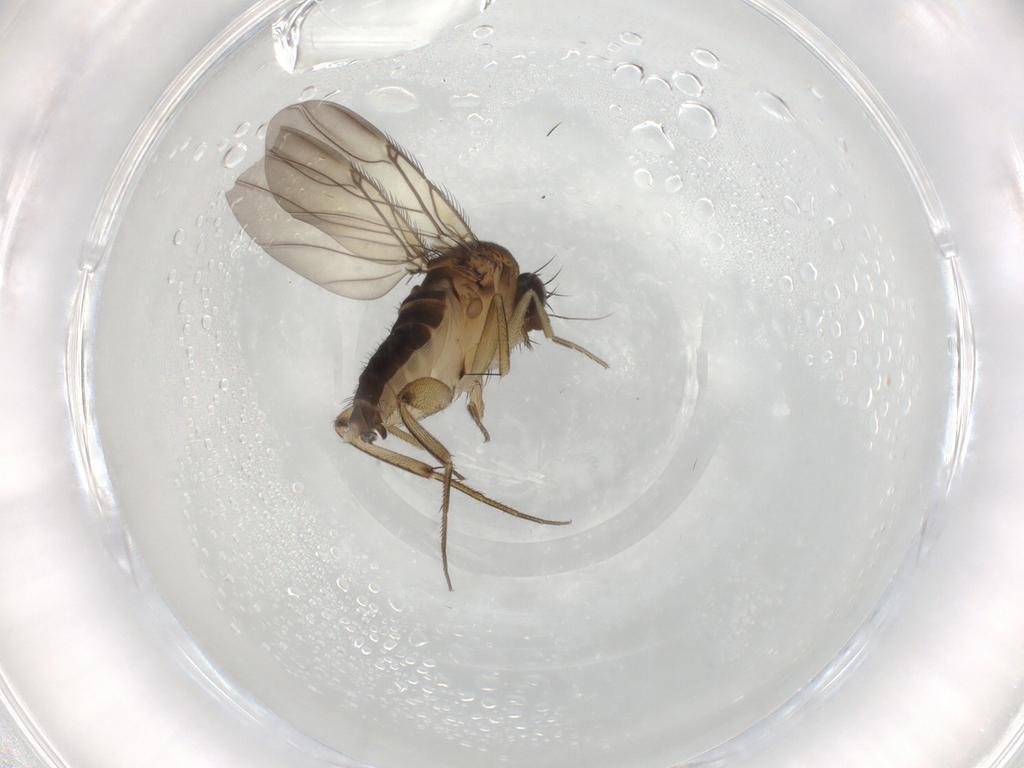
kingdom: Animalia
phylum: Arthropoda
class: Insecta
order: Diptera
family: Phoridae
